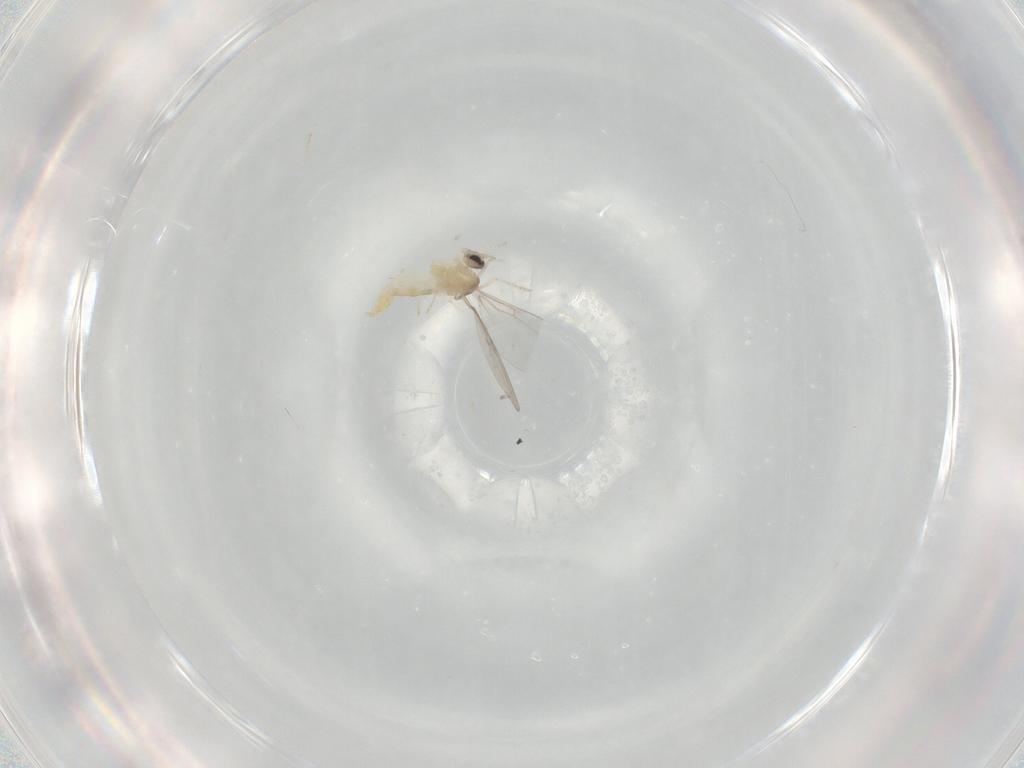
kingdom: Animalia
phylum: Arthropoda
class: Insecta
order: Diptera
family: Cecidomyiidae
